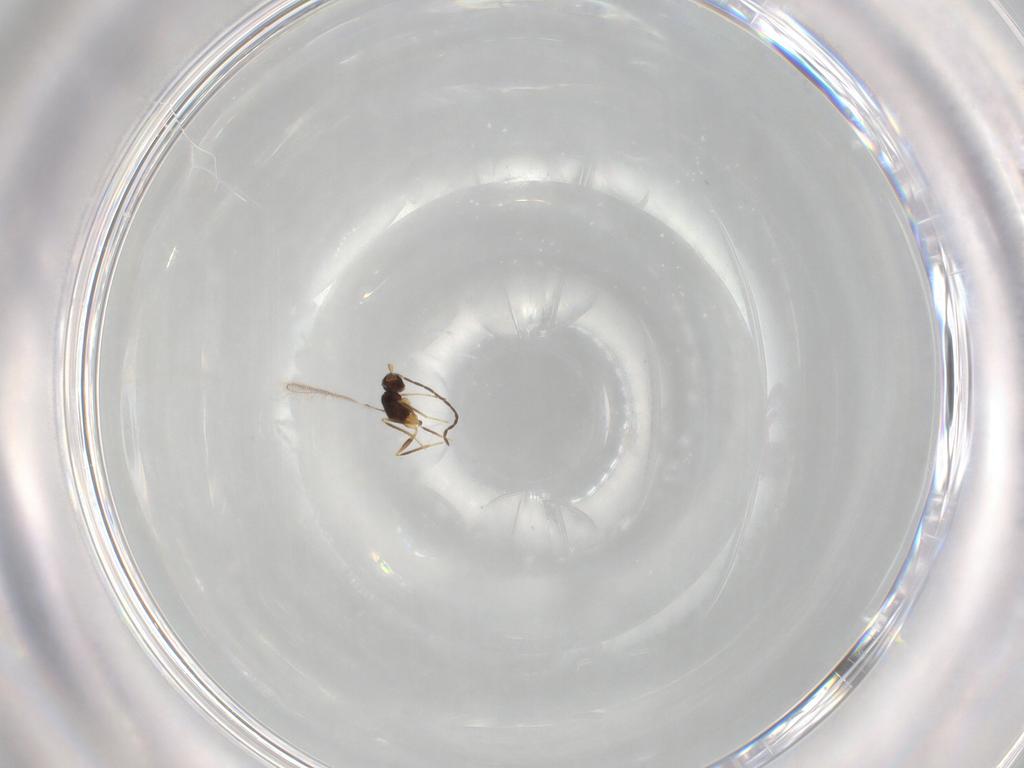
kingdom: Animalia
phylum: Arthropoda
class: Insecta
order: Hymenoptera
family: Mymaridae
